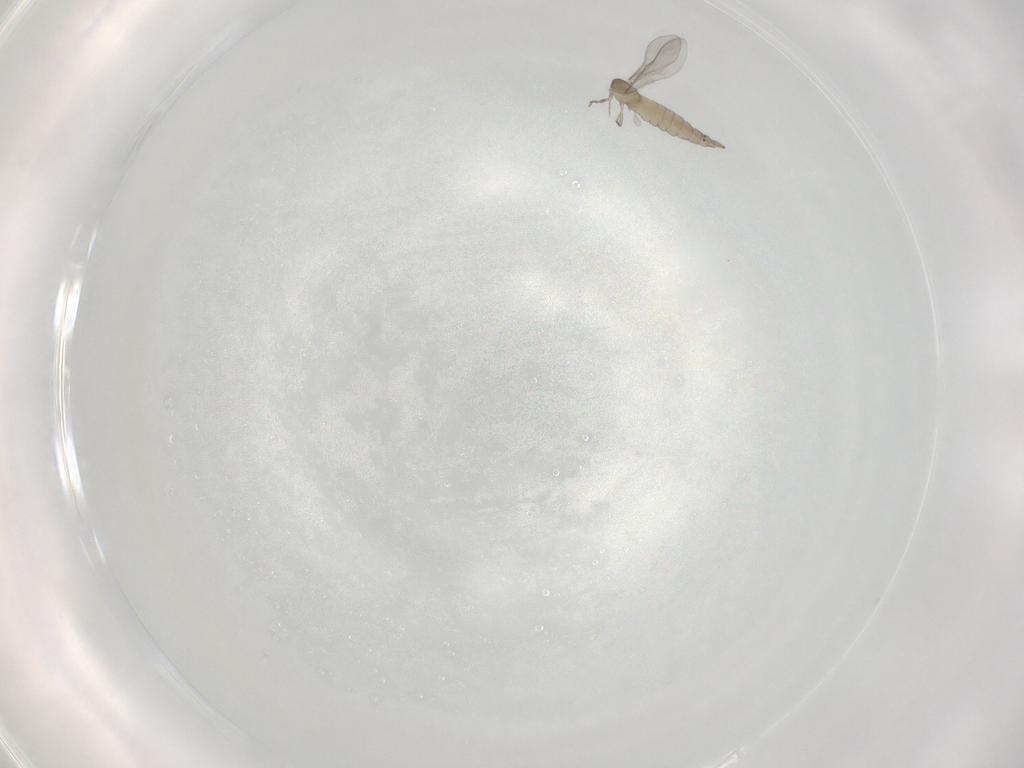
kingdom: Animalia
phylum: Arthropoda
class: Insecta
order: Diptera
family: Cecidomyiidae
